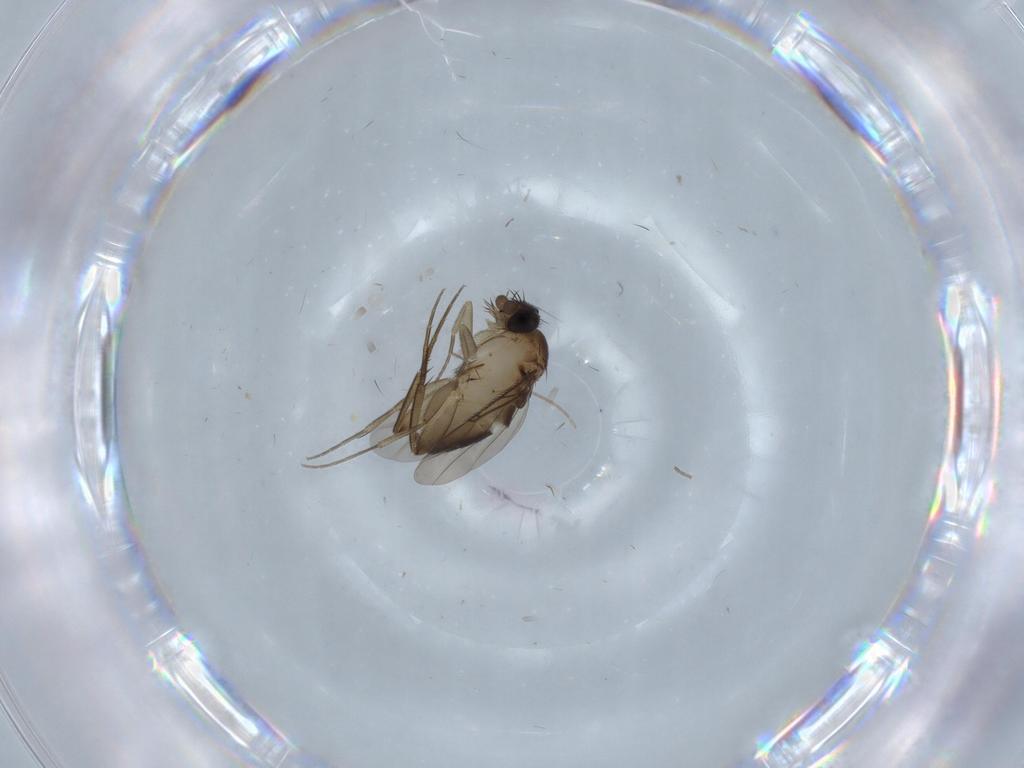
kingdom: Animalia
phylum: Arthropoda
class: Insecta
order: Diptera
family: Phoridae
